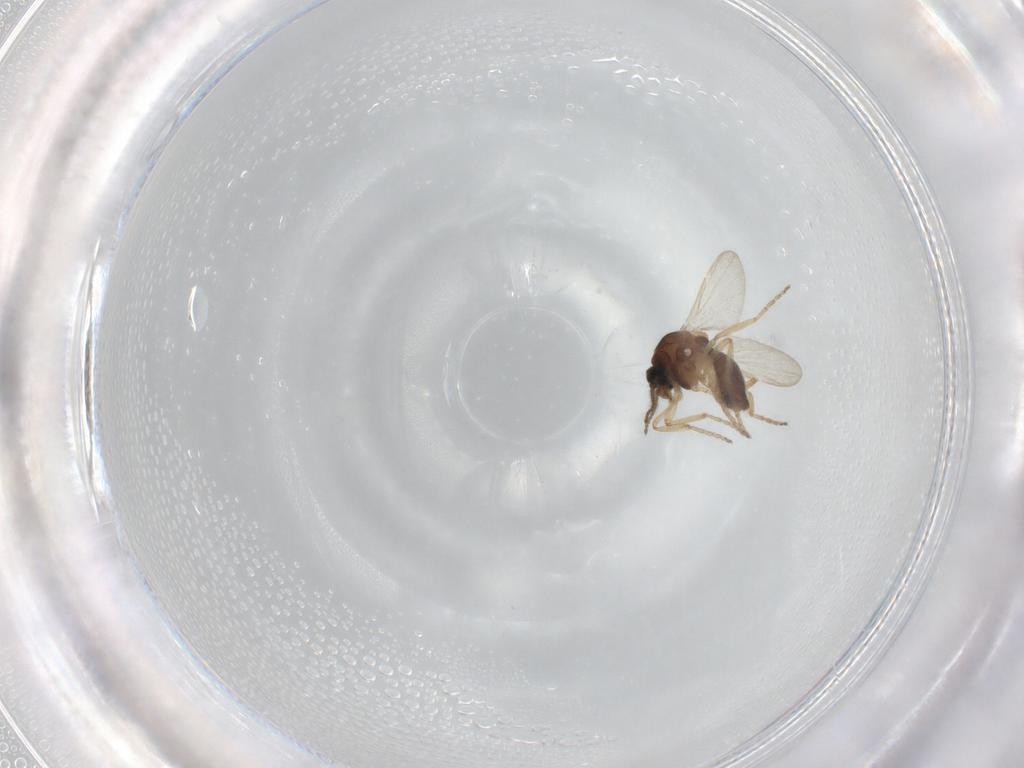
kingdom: Animalia
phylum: Arthropoda
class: Insecta
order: Diptera
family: Ceratopogonidae
